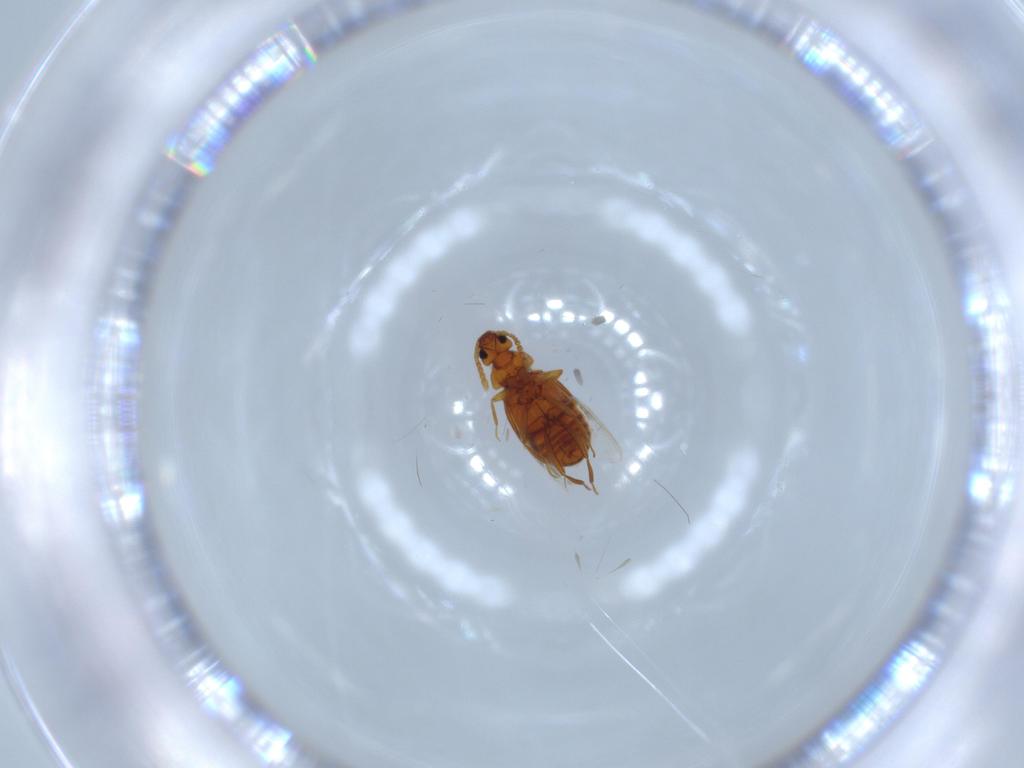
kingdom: Animalia
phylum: Arthropoda
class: Insecta
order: Coleoptera
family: Staphylinidae
